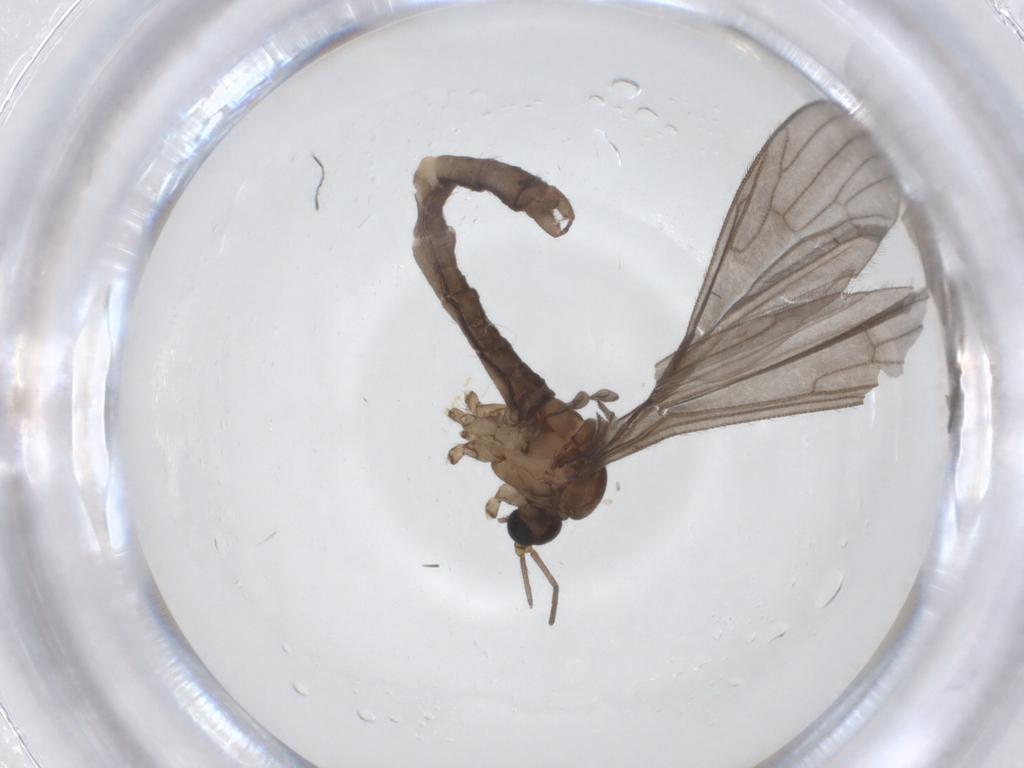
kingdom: Animalia
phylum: Arthropoda
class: Insecta
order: Diptera
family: Limoniidae
